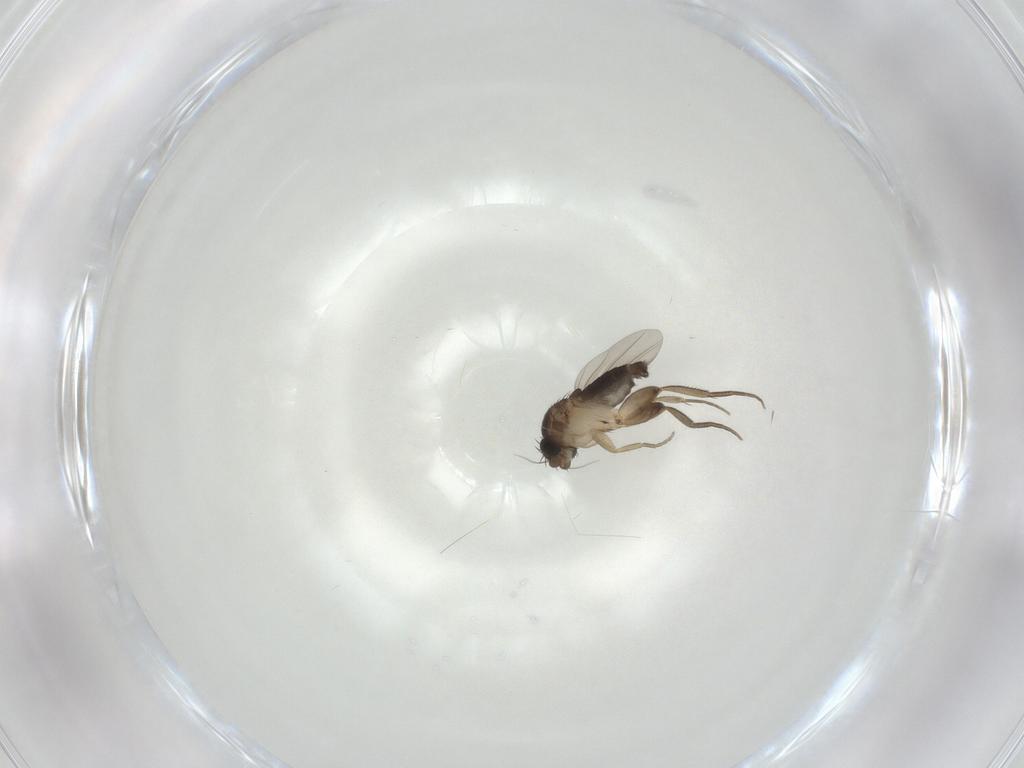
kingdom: Animalia
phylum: Arthropoda
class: Insecta
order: Diptera
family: Phoridae
